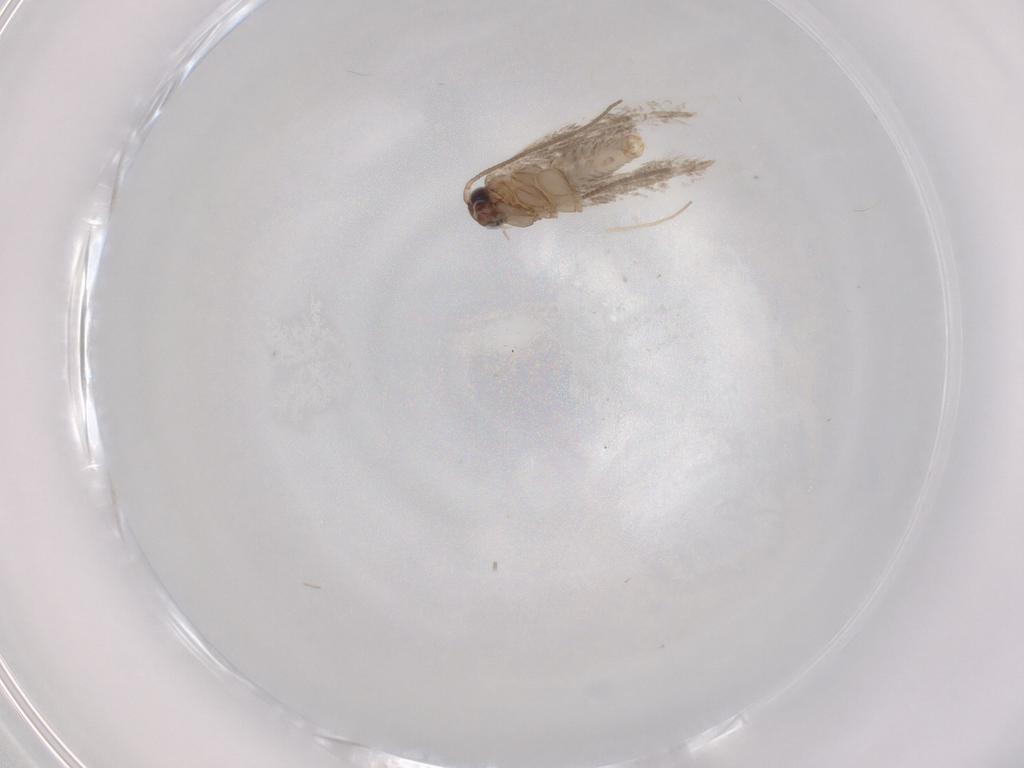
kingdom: Animalia
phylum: Arthropoda
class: Insecta
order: Lepidoptera
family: Tineidae
